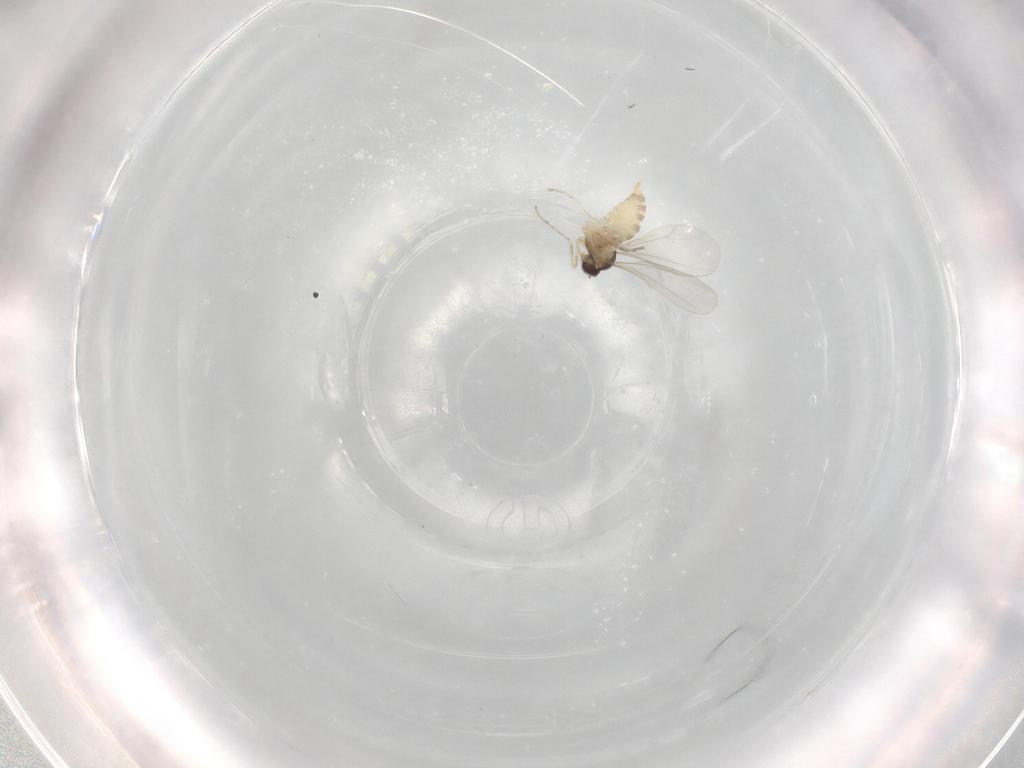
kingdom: Animalia
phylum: Arthropoda
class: Insecta
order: Diptera
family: Cecidomyiidae
